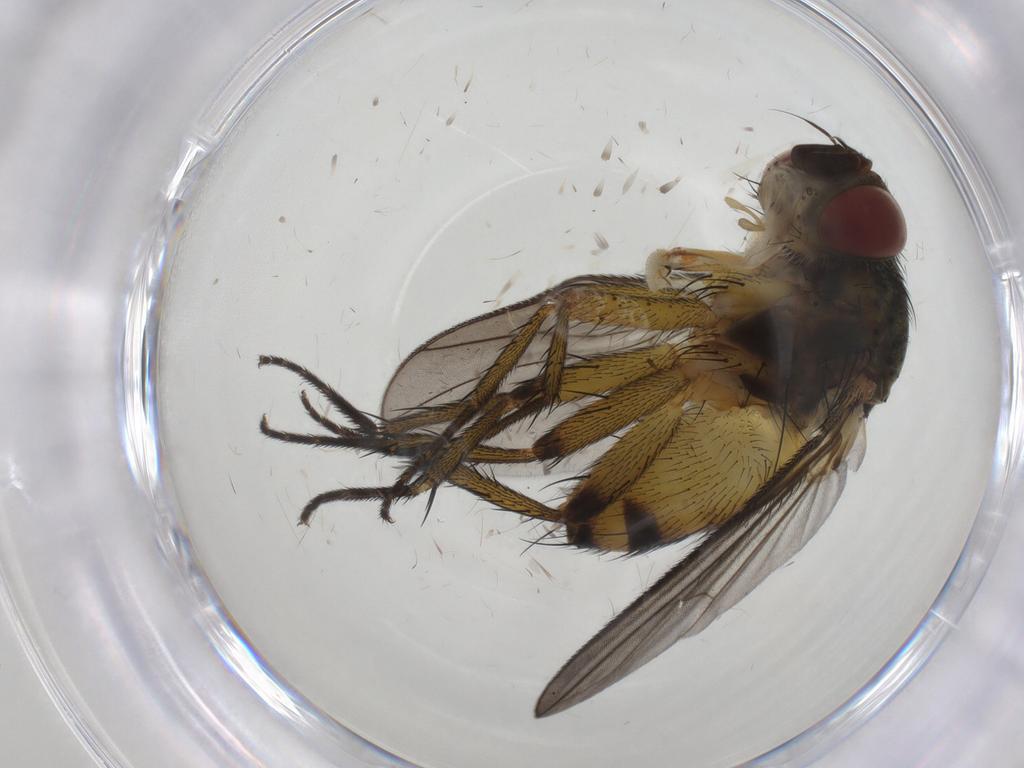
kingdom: Animalia
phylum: Arthropoda
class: Insecta
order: Diptera
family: Tachinidae
